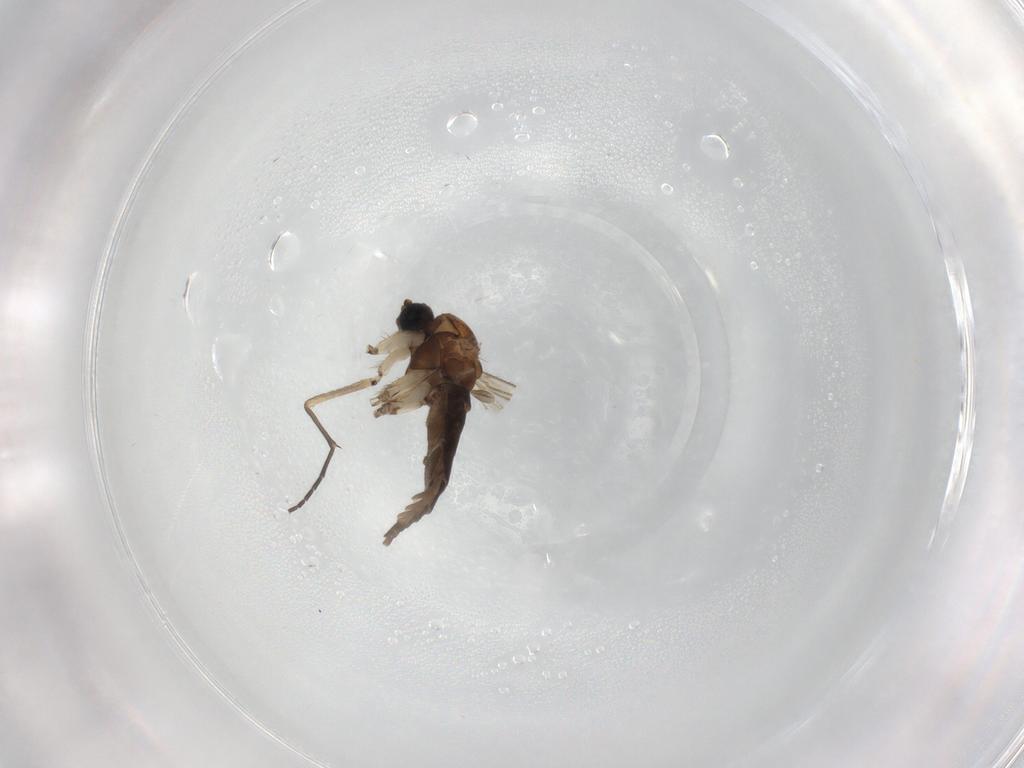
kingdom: Animalia
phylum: Arthropoda
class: Insecta
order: Diptera
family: Sciaridae
